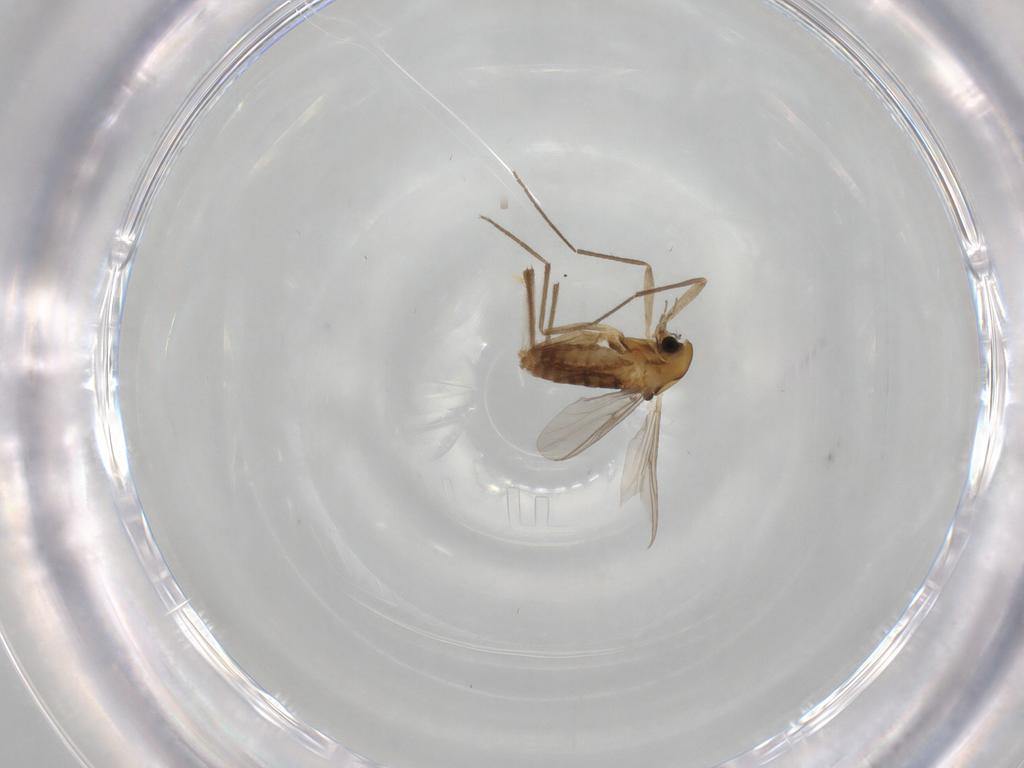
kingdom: Animalia
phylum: Arthropoda
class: Insecta
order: Diptera
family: Chironomidae
